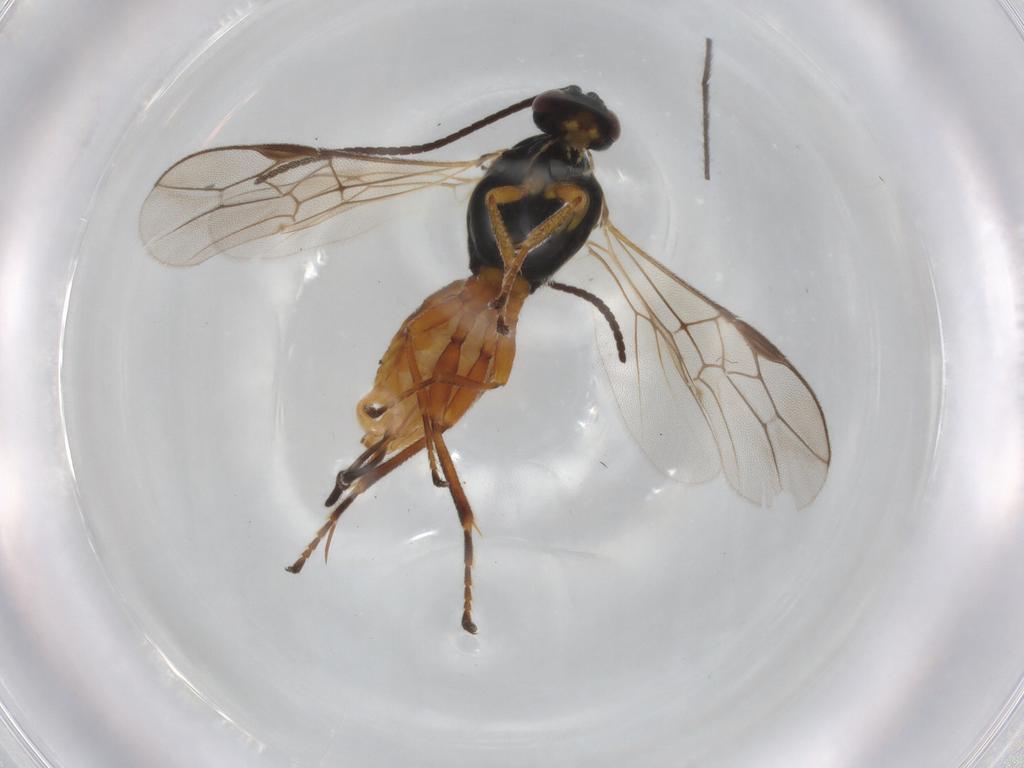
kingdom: Animalia
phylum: Arthropoda
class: Insecta
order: Hymenoptera
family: Braconidae
